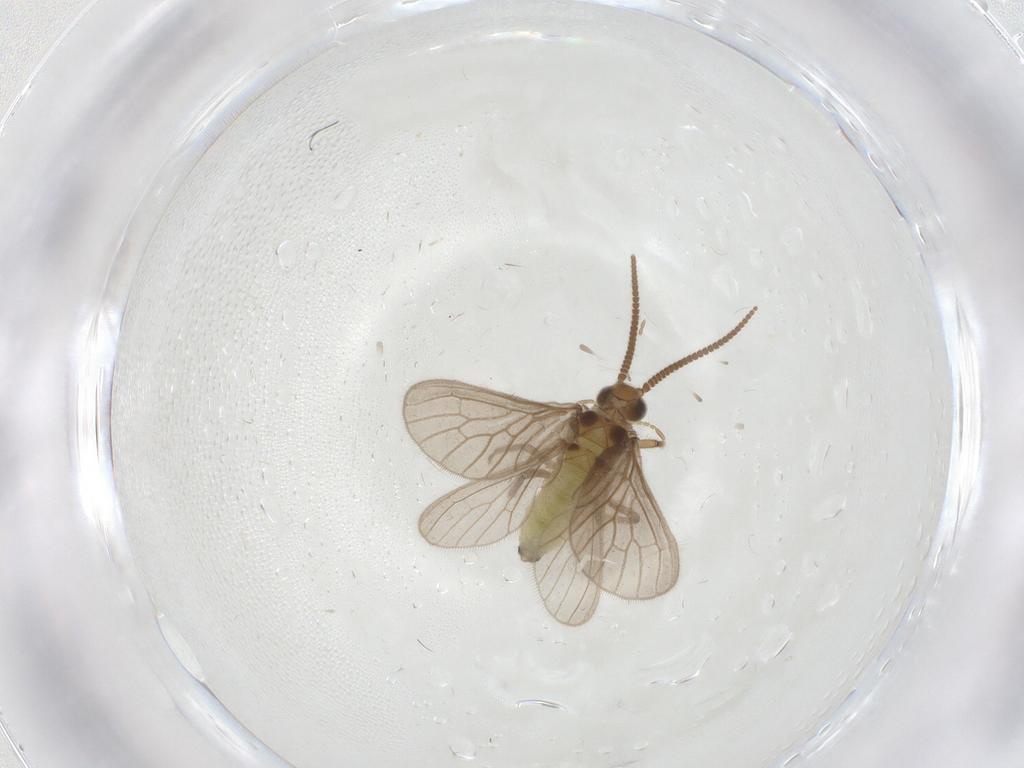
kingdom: Animalia
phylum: Arthropoda
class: Insecta
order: Neuroptera
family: Coniopterygidae
